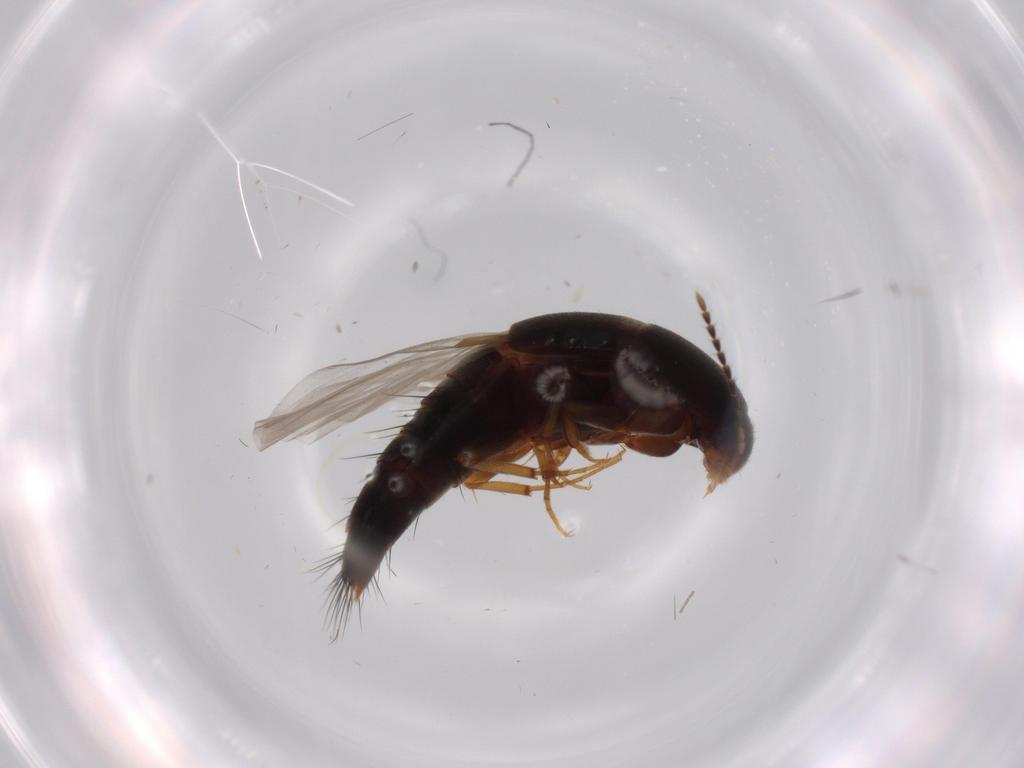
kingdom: Animalia
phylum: Arthropoda
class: Insecta
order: Coleoptera
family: Staphylinidae
